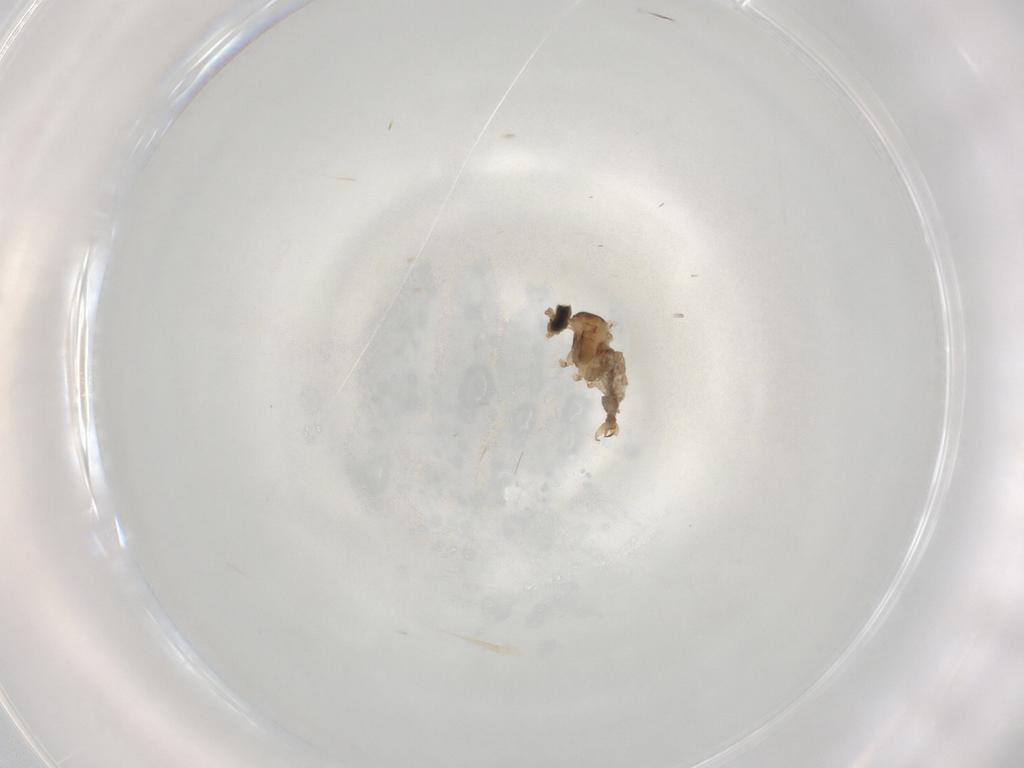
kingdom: Animalia
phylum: Arthropoda
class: Insecta
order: Diptera
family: Cecidomyiidae
